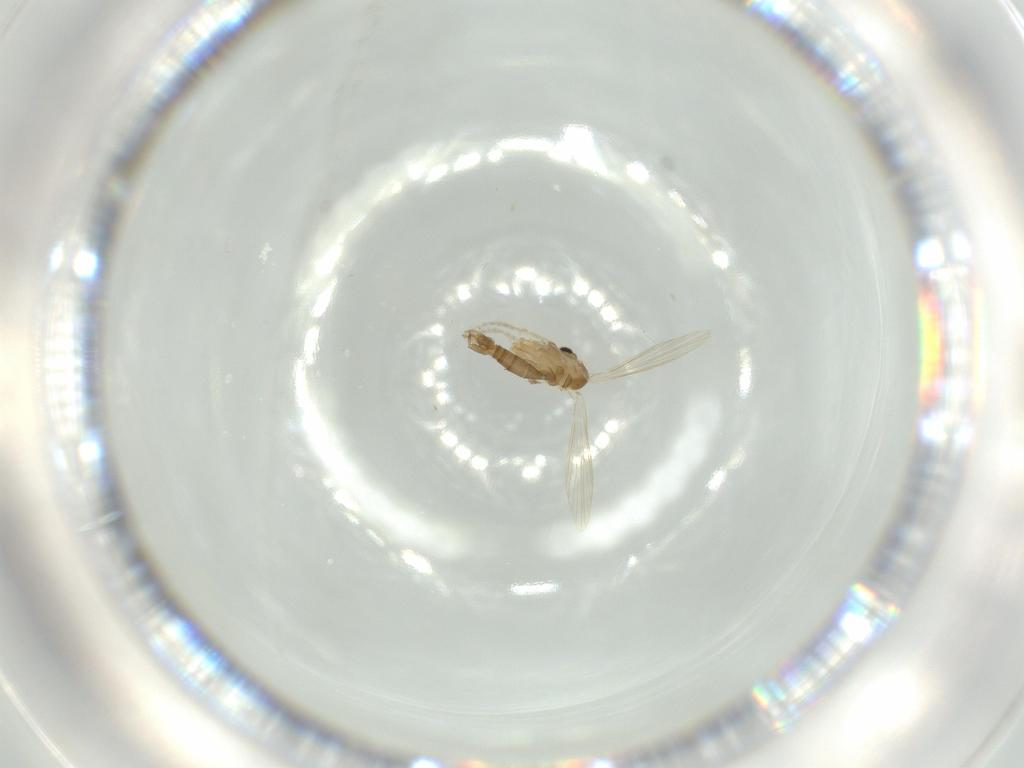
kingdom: Animalia
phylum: Arthropoda
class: Insecta
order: Diptera
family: Psychodidae
